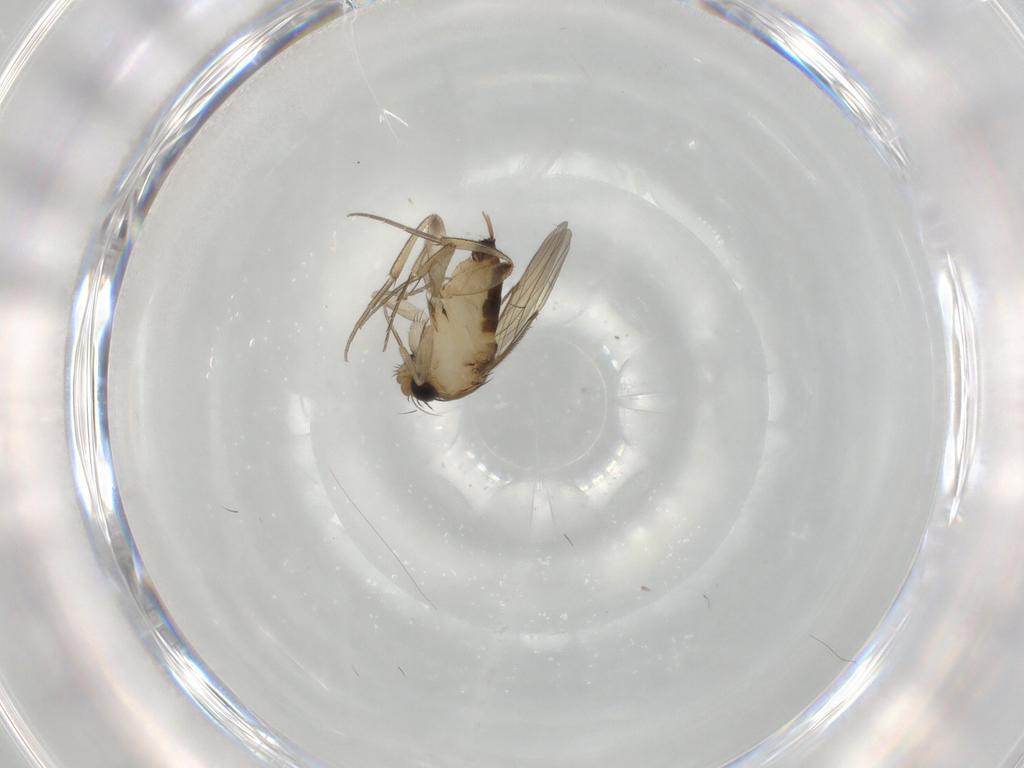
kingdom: Animalia
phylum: Arthropoda
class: Insecta
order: Diptera
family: Phoridae
